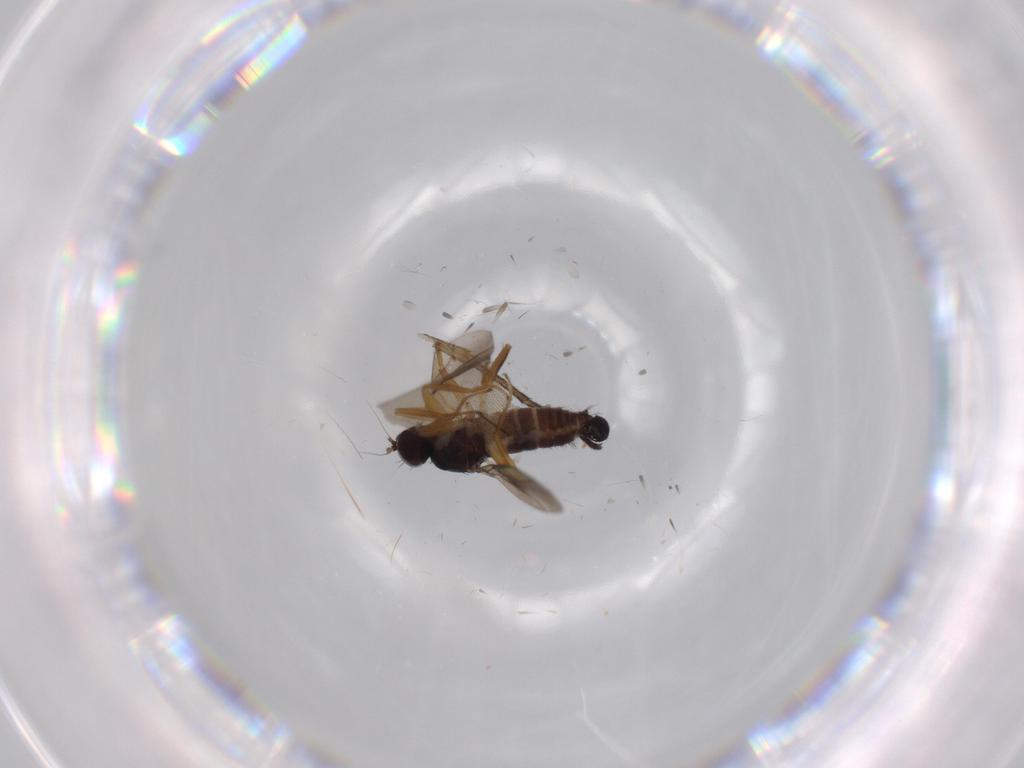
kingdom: Animalia
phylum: Arthropoda
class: Insecta
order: Diptera
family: Hybotidae
